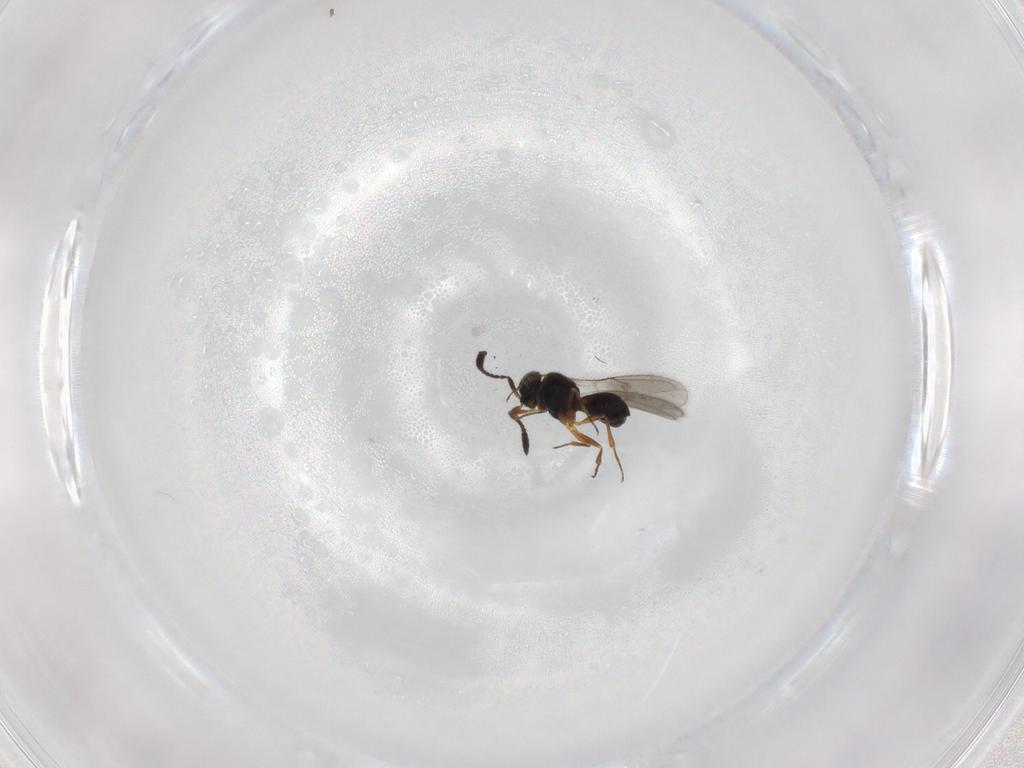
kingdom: Animalia
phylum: Arthropoda
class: Insecta
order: Hymenoptera
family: Scelionidae
